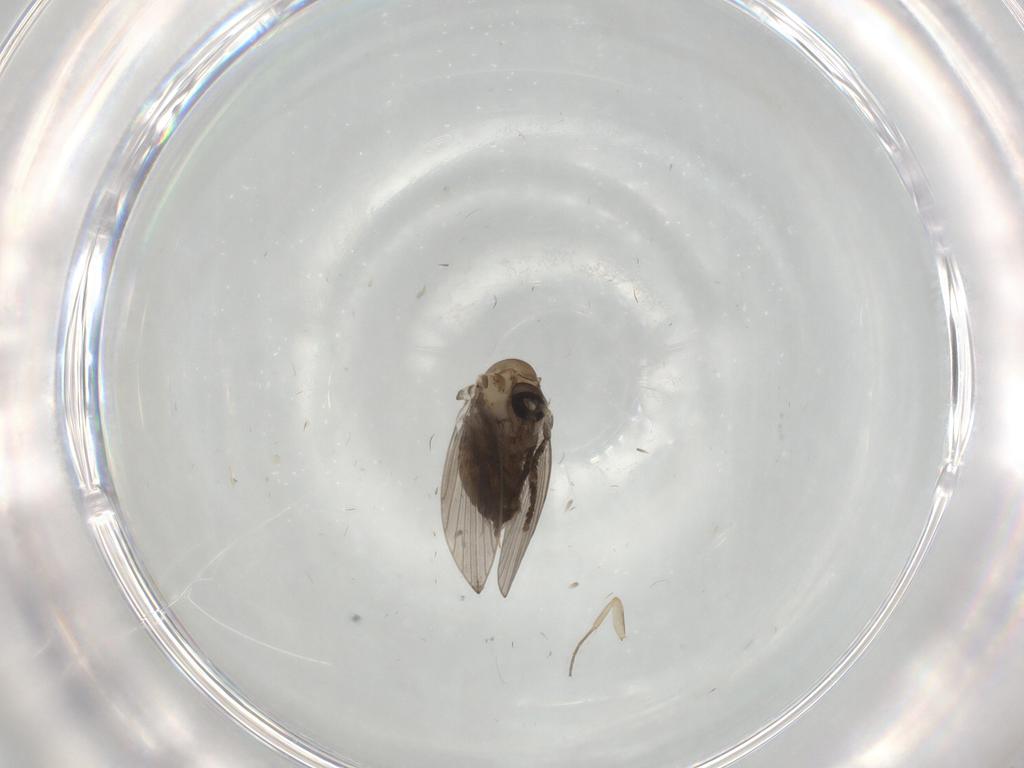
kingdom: Animalia
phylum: Arthropoda
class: Insecta
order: Diptera
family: Psychodidae
